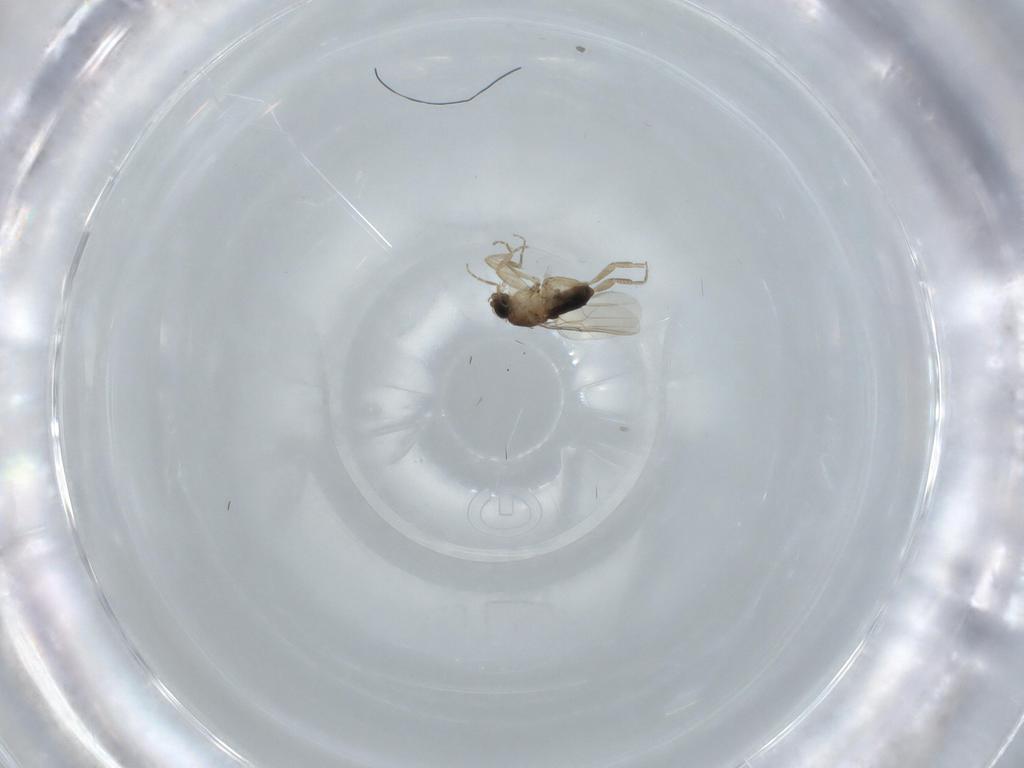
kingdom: Animalia
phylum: Arthropoda
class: Insecta
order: Diptera
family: Phoridae
